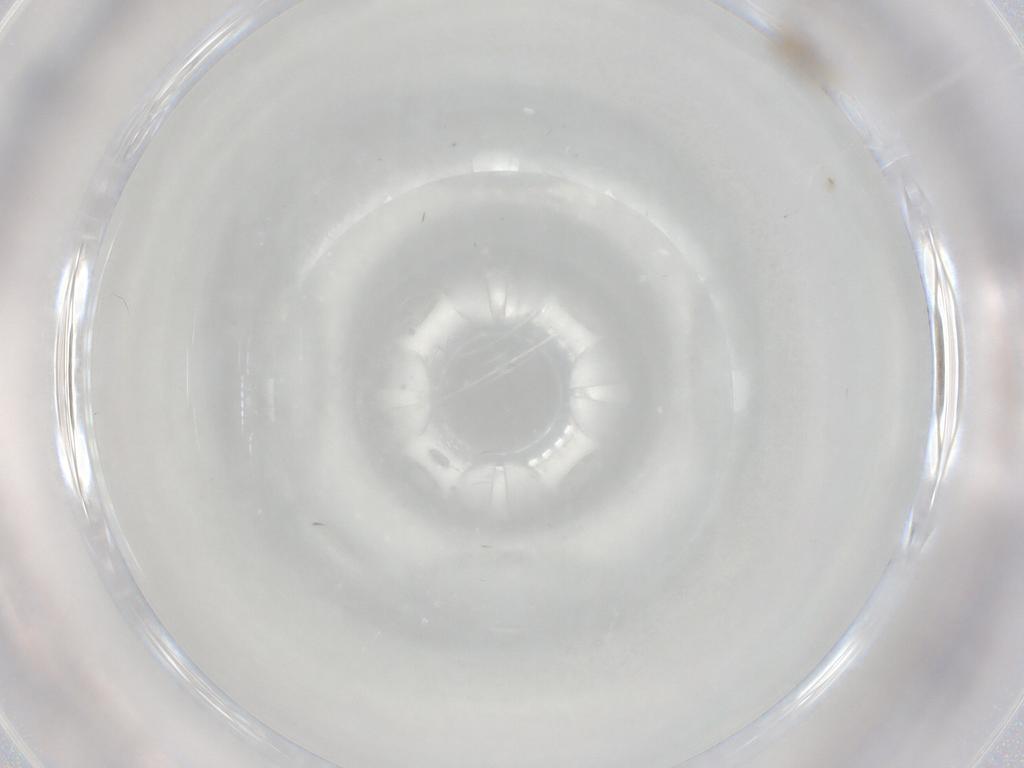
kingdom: Animalia
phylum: Arthropoda
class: Insecta
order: Diptera
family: Cecidomyiidae
